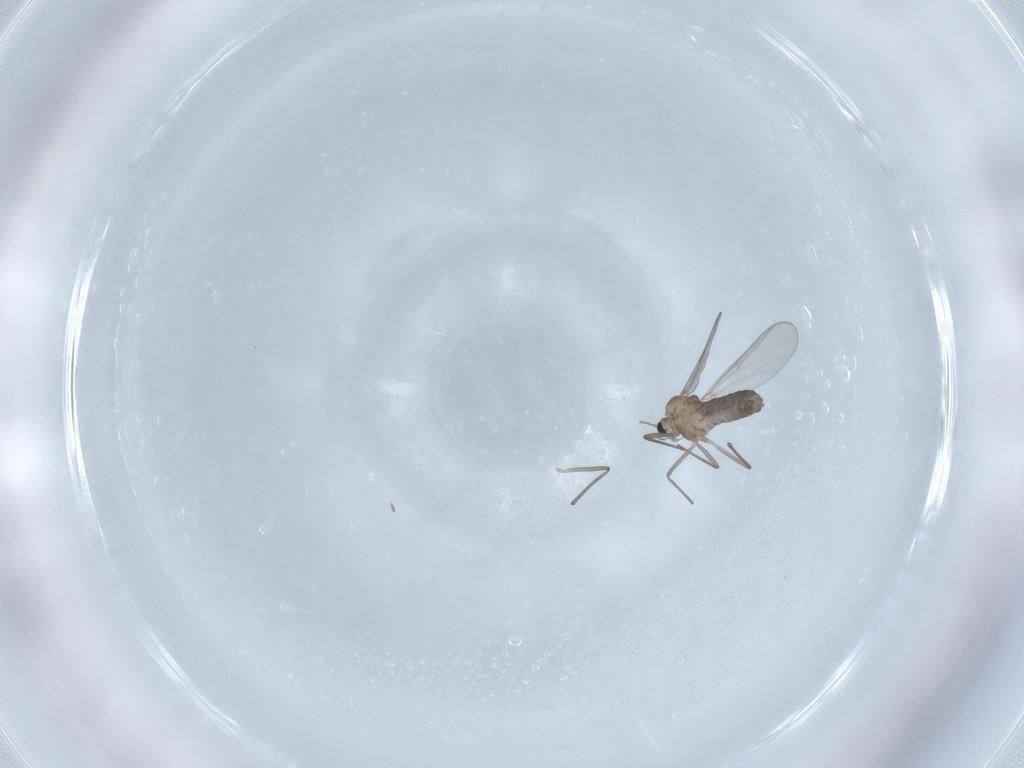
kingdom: Animalia
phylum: Arthropoda
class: Insecta
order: Diptera
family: Chironomidae
